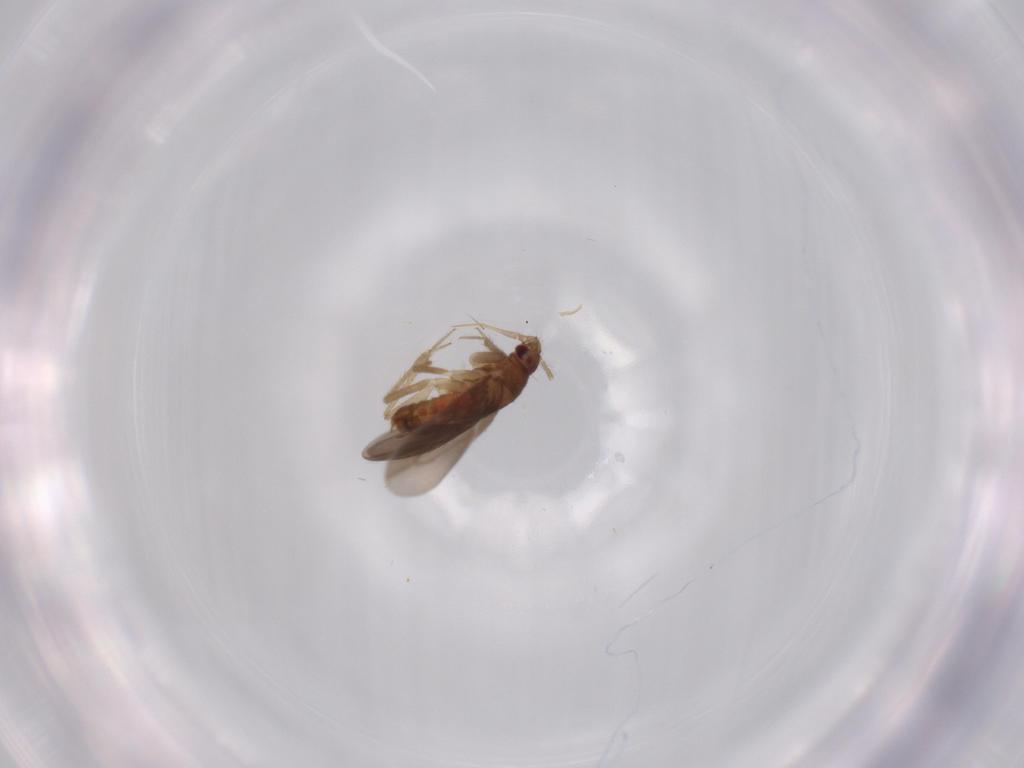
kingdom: Animalia
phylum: Arthropoda
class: Insecta
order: Hemiptera
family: Ceratocombidae
